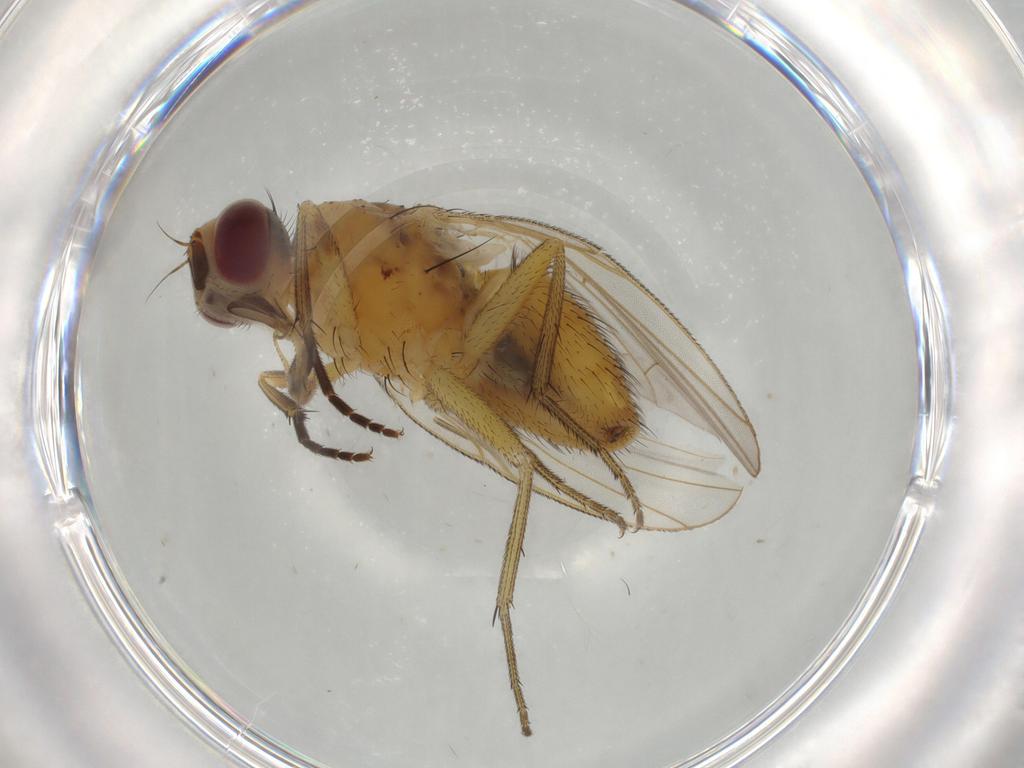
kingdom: Animalia
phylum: Arthropoda
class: Insecta
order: Diptera
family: Muscidae
